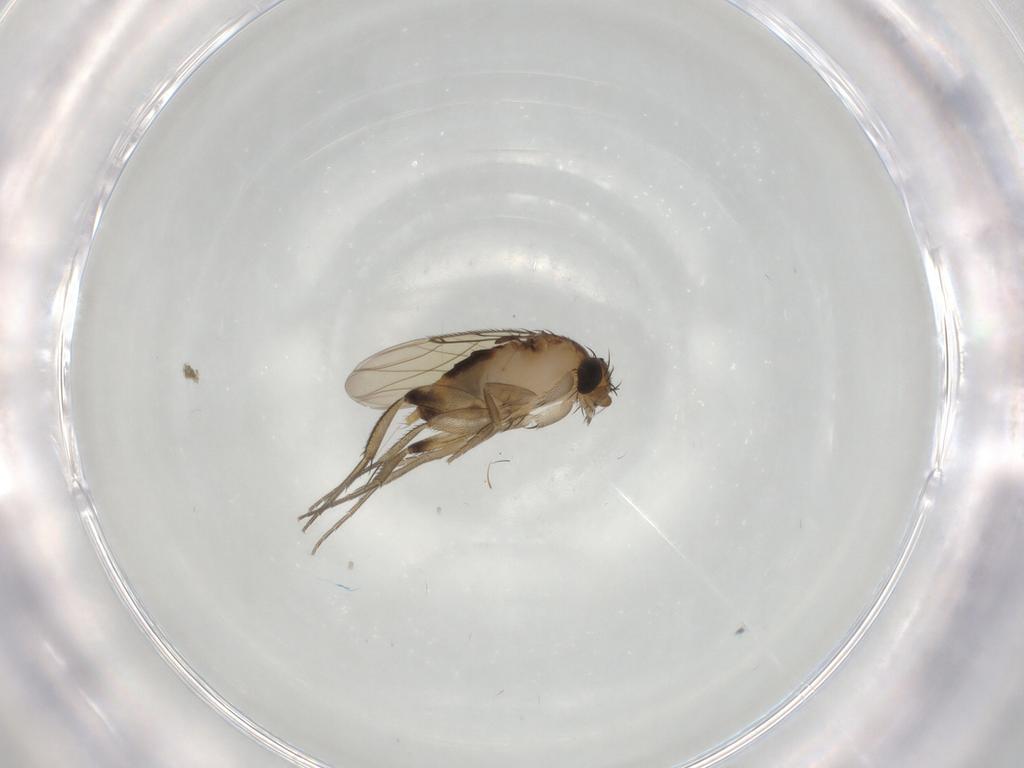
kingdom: Animalia
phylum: Arthropoda
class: Insecta
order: Diptera
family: Phoridae
